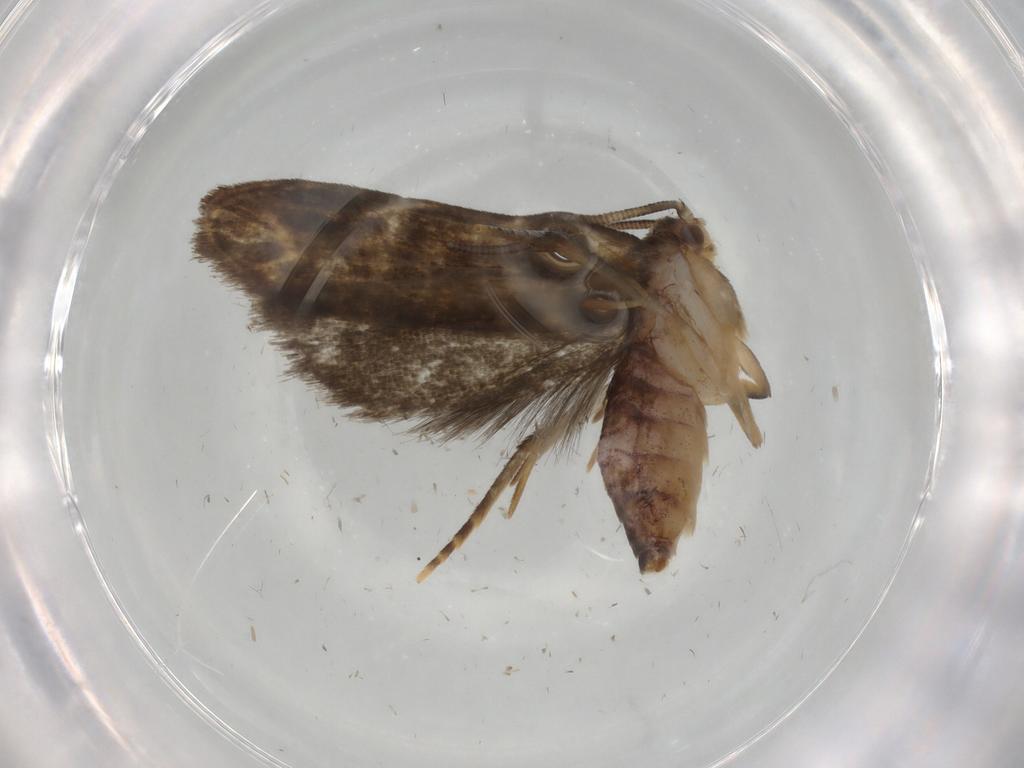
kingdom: Animalia
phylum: Arthropoda
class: Insecta
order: Lepidoptera
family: Dryadaulidae
